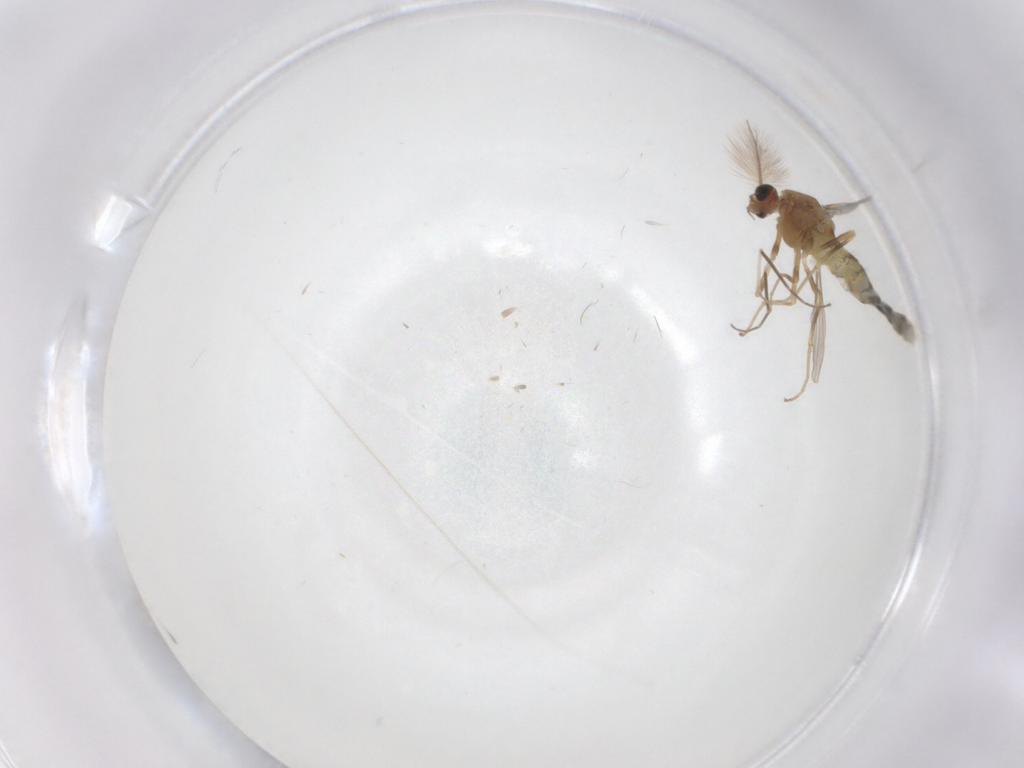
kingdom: Animalia
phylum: Arthropoda
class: Insecta
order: Diptera
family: Chironomidae
